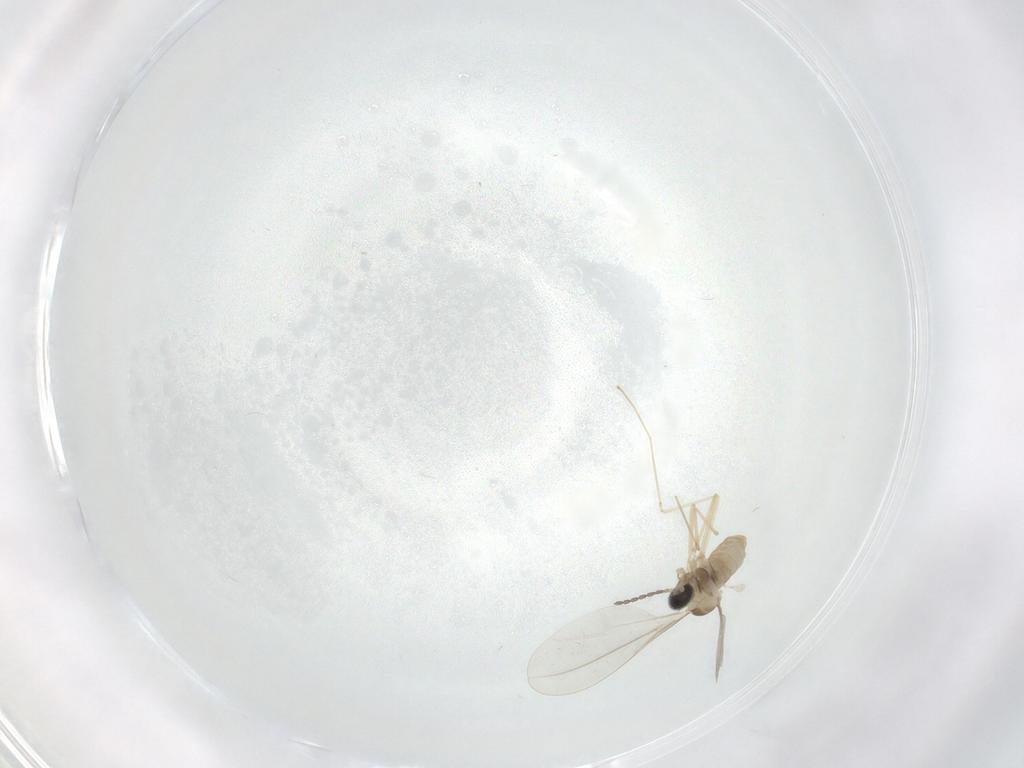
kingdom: Animalia
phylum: Arthropoda
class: Insecta
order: Diptera
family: Cecidomyiidae
